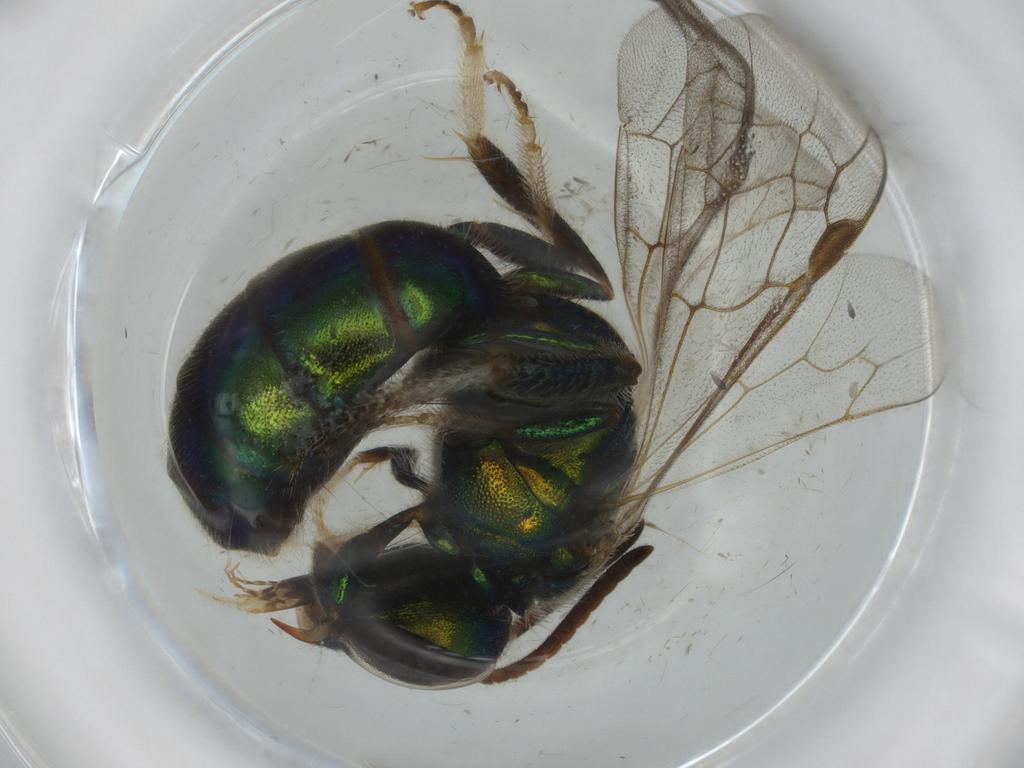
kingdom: Animalia
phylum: Arthropoda
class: Insecta
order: Hymenoptera
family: Halictidae
